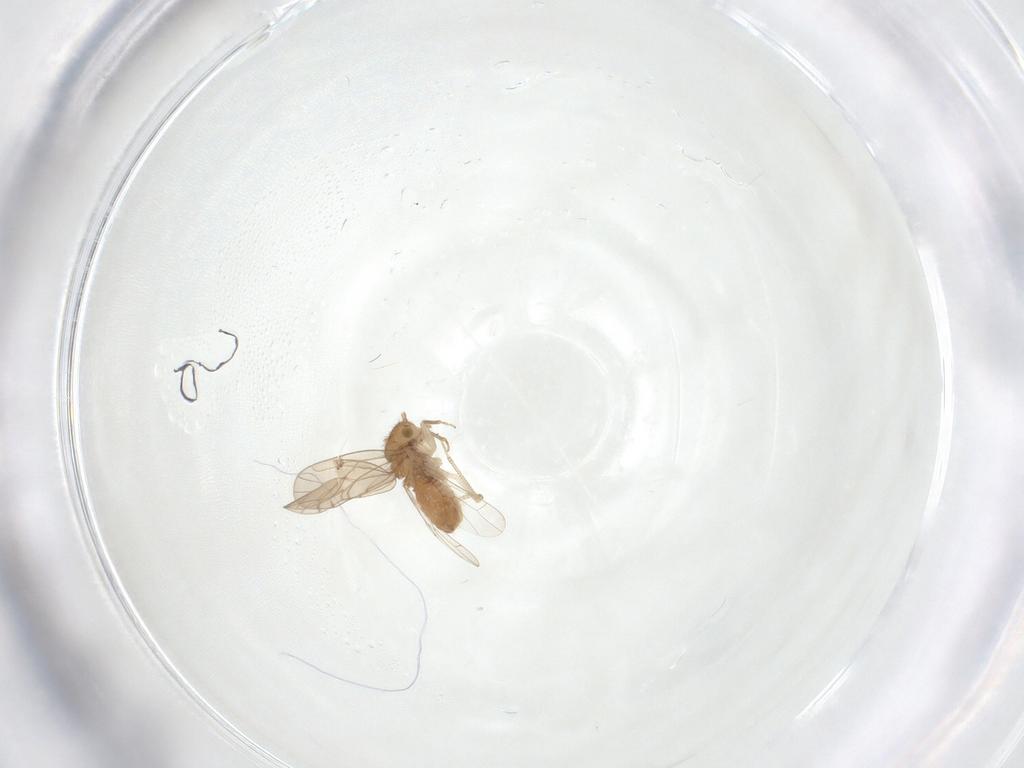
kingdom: Animalia
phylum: Arthropoda
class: Insecta
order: Psocodea
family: Ectopsocidae
